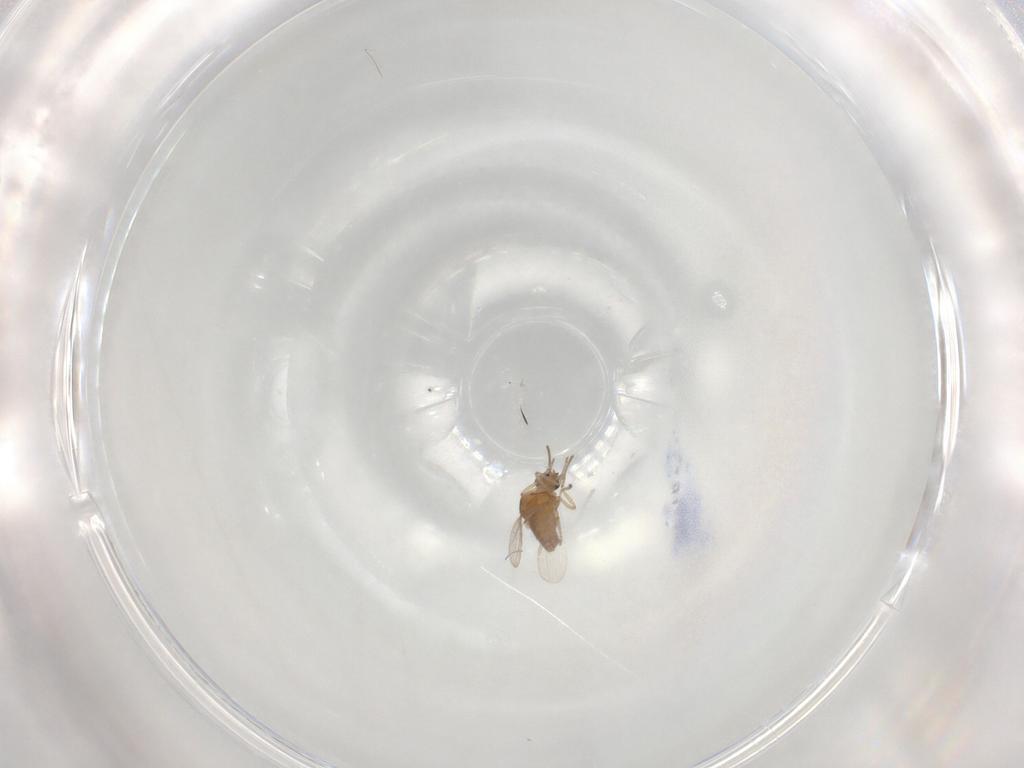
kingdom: Animalia
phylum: Arthropoda
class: Insecta
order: Diptera
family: Ceratopogonidae
